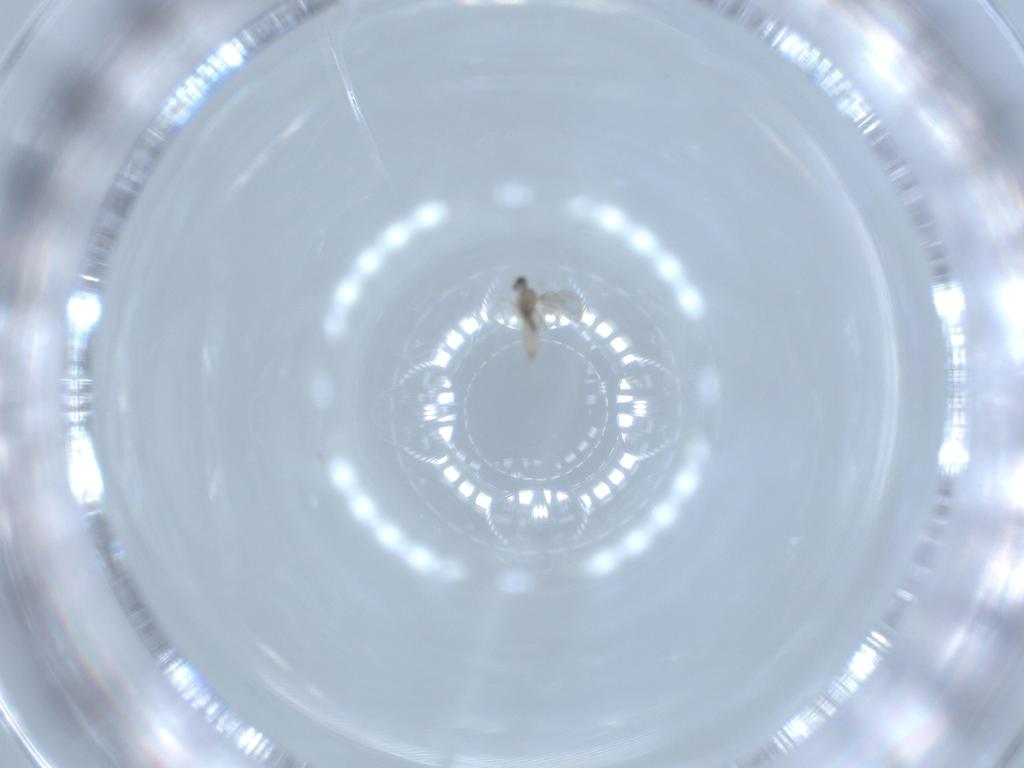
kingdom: Animalia
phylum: Arthropoda
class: Insecta
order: Diptera
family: Cecidomyiidae
